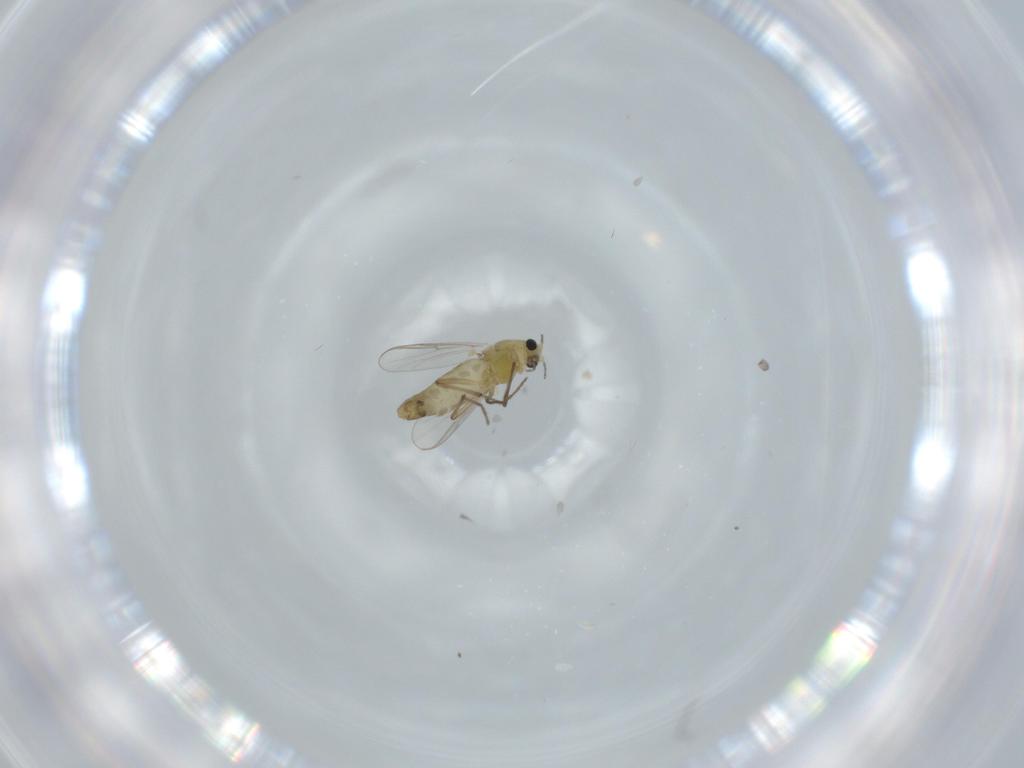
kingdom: Animalia
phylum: Arthropoda
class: Insecta
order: Diptera
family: Chironomidae
